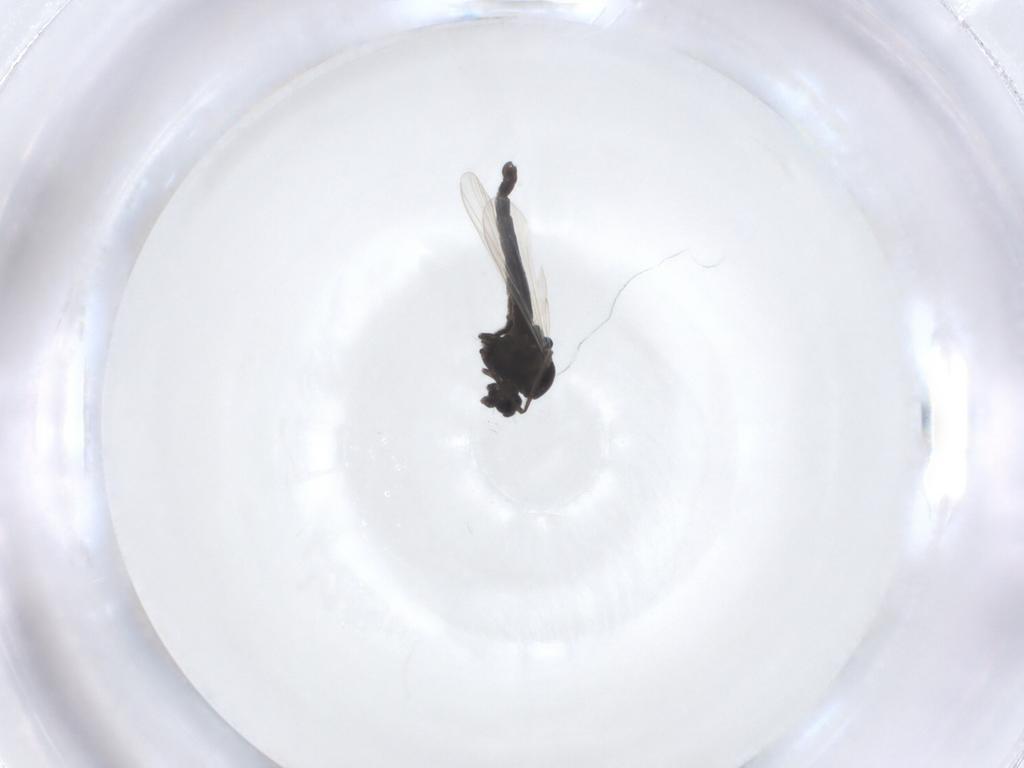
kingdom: Animalia
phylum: Arthropoda
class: Insecta
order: Diptera
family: Chironomidae
